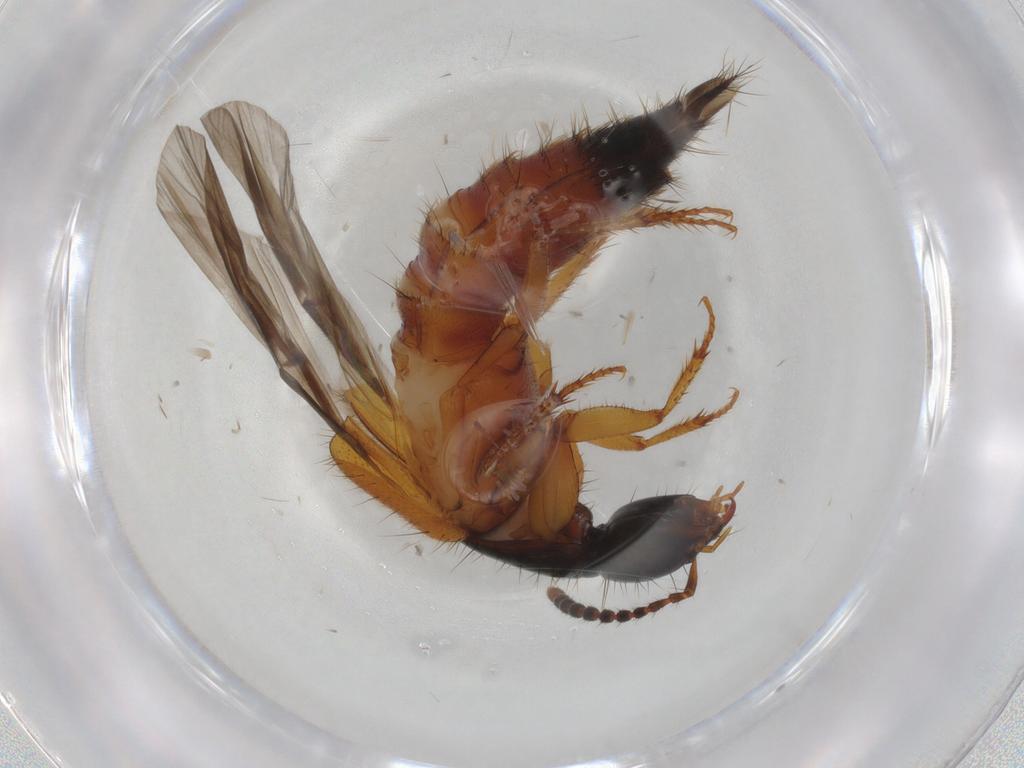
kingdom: Animalia
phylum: Arthropoda
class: Insecta
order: Coleoptera
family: Staphylinidae
